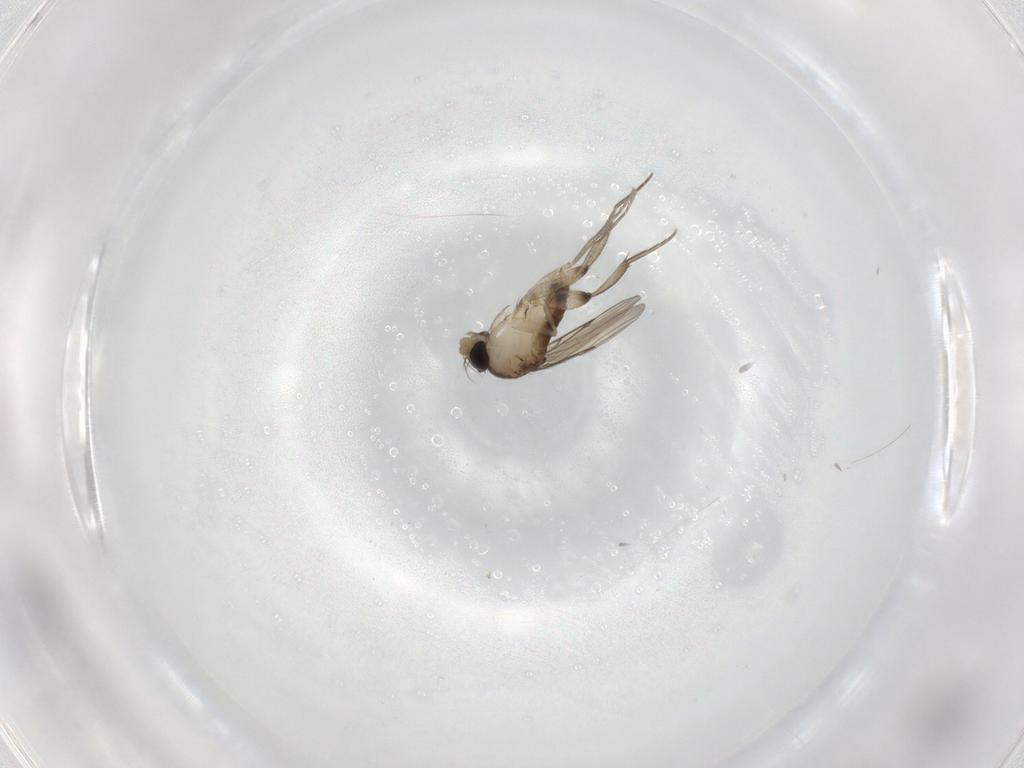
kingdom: Animalia
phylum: Arthropoda
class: Insecta
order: Diptera
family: Phoridae
